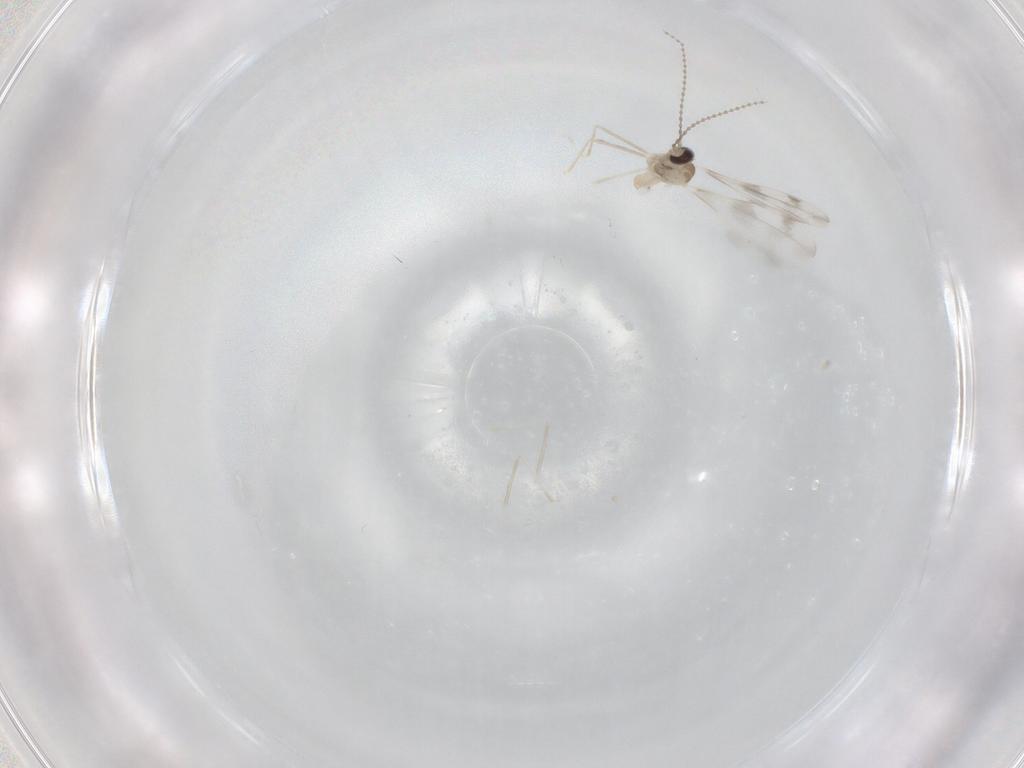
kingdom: Animalia
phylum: Arthropoda
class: Insecta
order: Diptera
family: Cecidomyiidae
